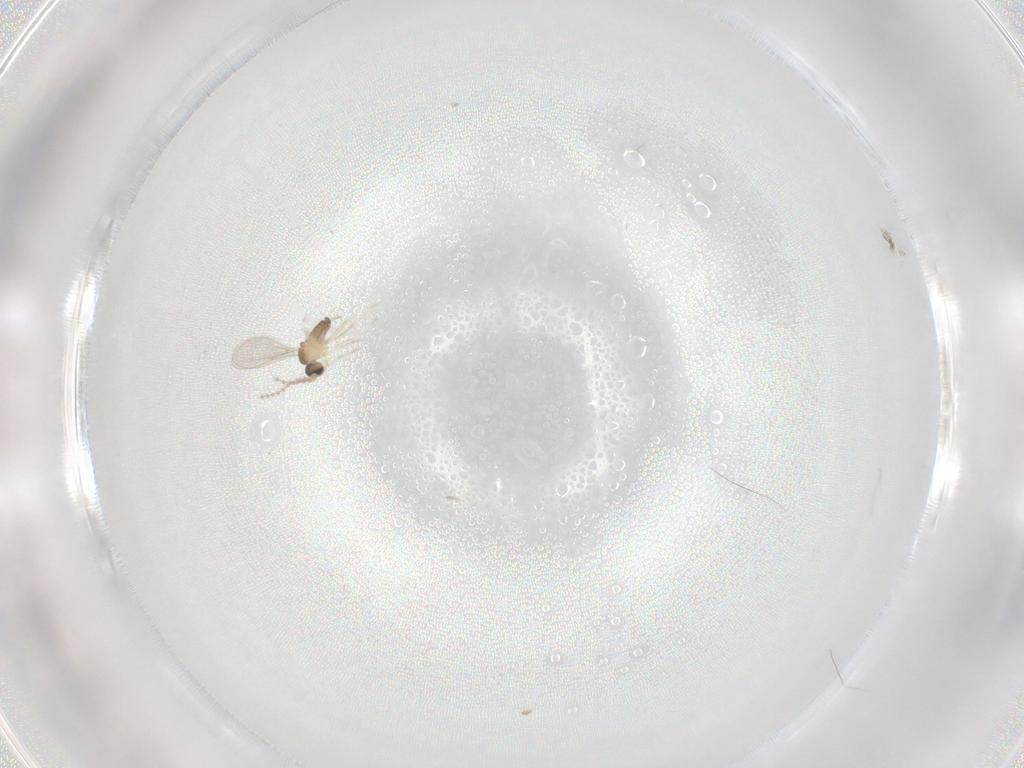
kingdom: Animalia
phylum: Arthropoda
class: Insecta
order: Diptera
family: Cecidomyiidae
